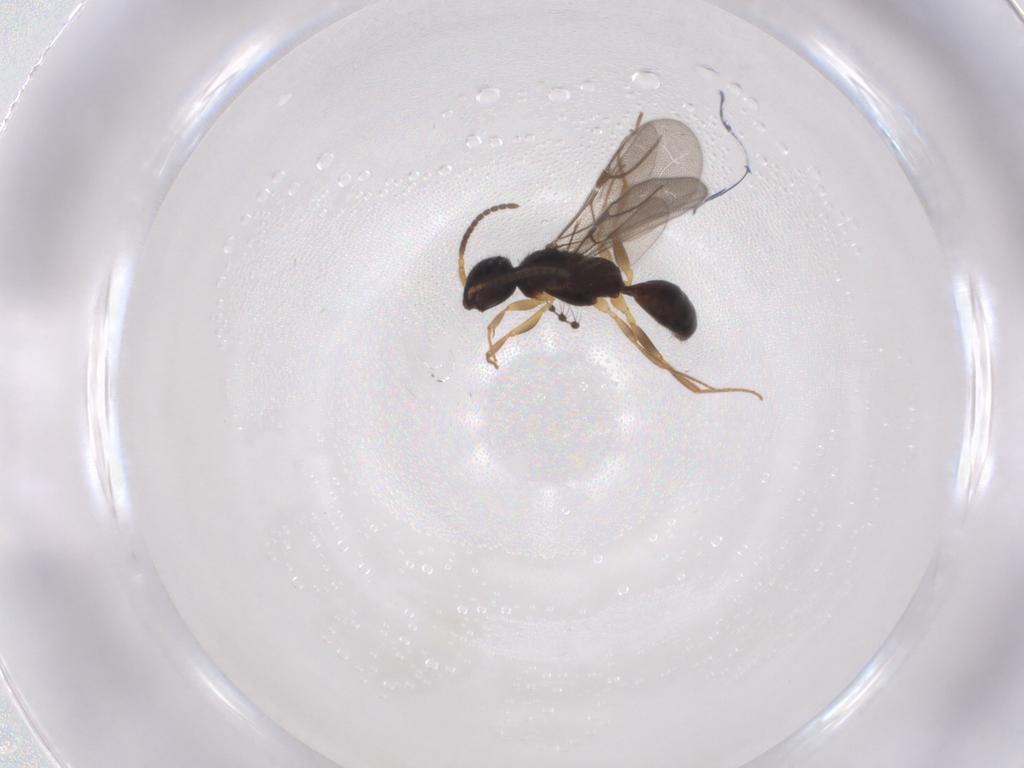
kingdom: Animalia
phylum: Arthropoda
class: Insecta
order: Hymenoptera
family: Bethylidae
